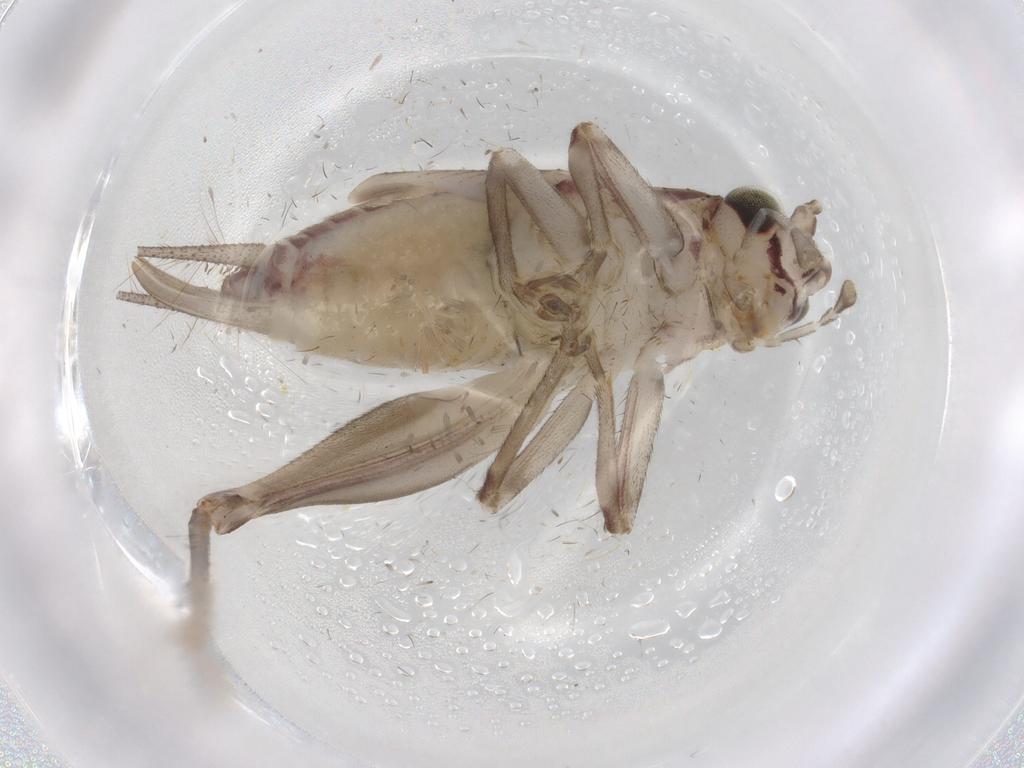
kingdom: Animalia
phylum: Arthropoda
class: Insecta
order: Orthoptera
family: Trigonidiidae
